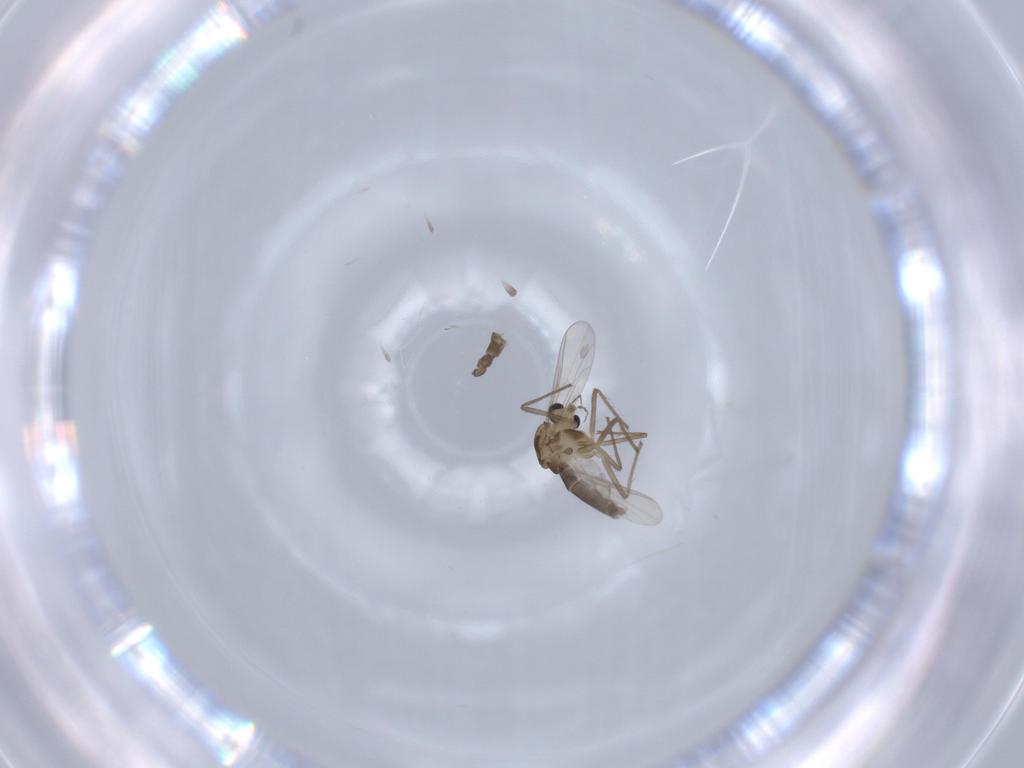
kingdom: Animalia
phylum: Arthropoda
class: Insecta
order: Diptera
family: Chironomidae
